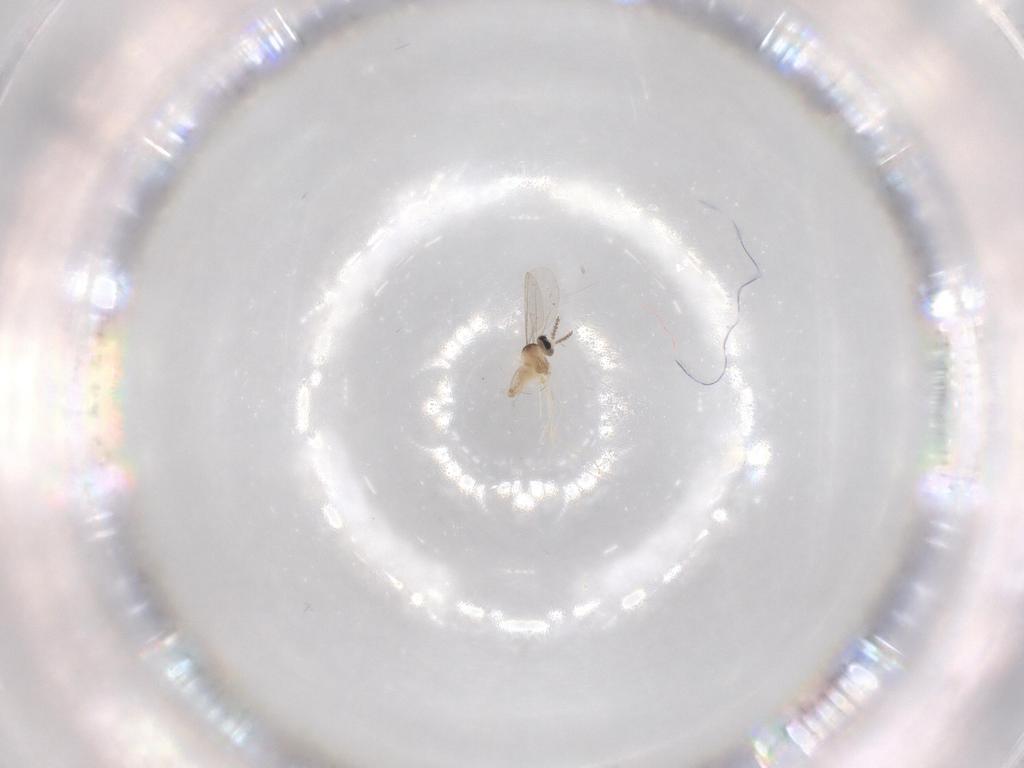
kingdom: Animalia
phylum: Arthropoda
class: Insecta
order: Diptera
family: Cecidomyiidae
